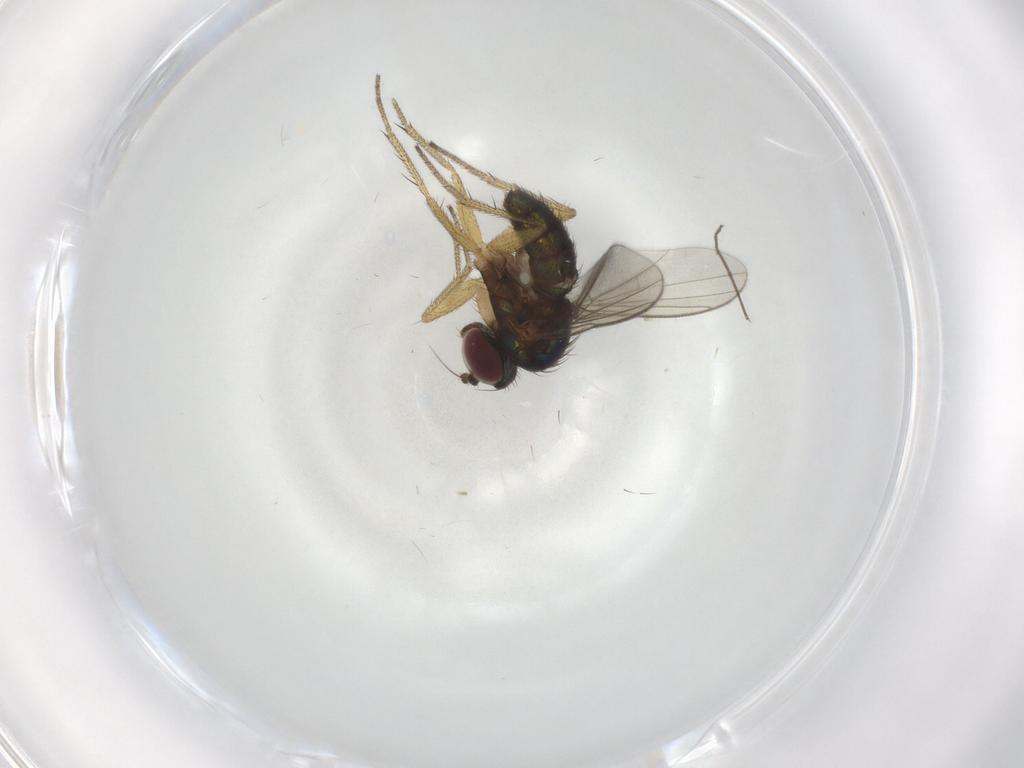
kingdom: Animalia
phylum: Arthropoda
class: Insecta
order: Diptera
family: Dolichopodidae
